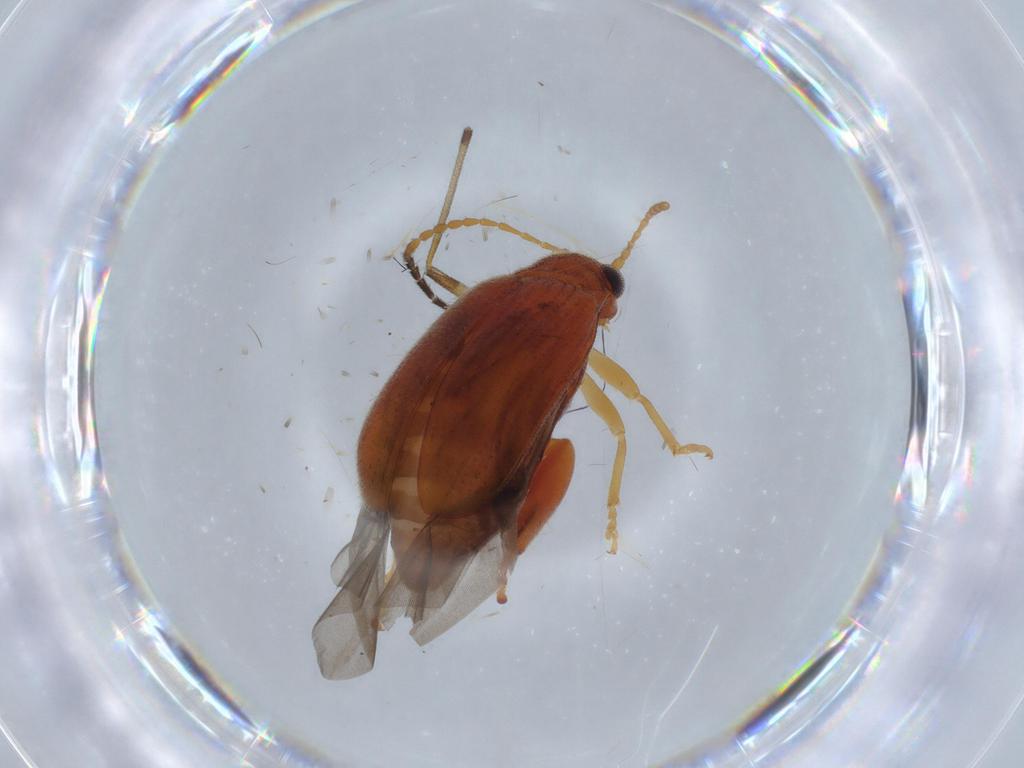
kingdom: Animalia
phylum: Arthropoda
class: Insecta
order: Coleoptera
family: Chrysomelidae
